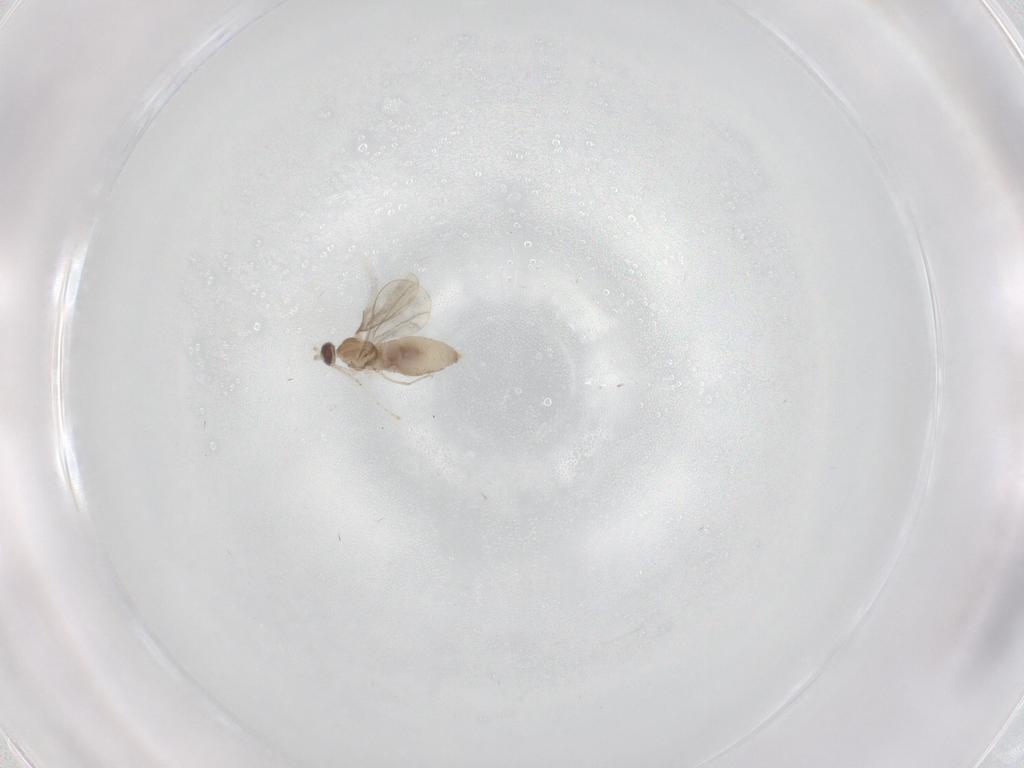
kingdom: Animalia
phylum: Arthropoda
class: Insecta
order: Diptera
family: Cecidomyiidae
